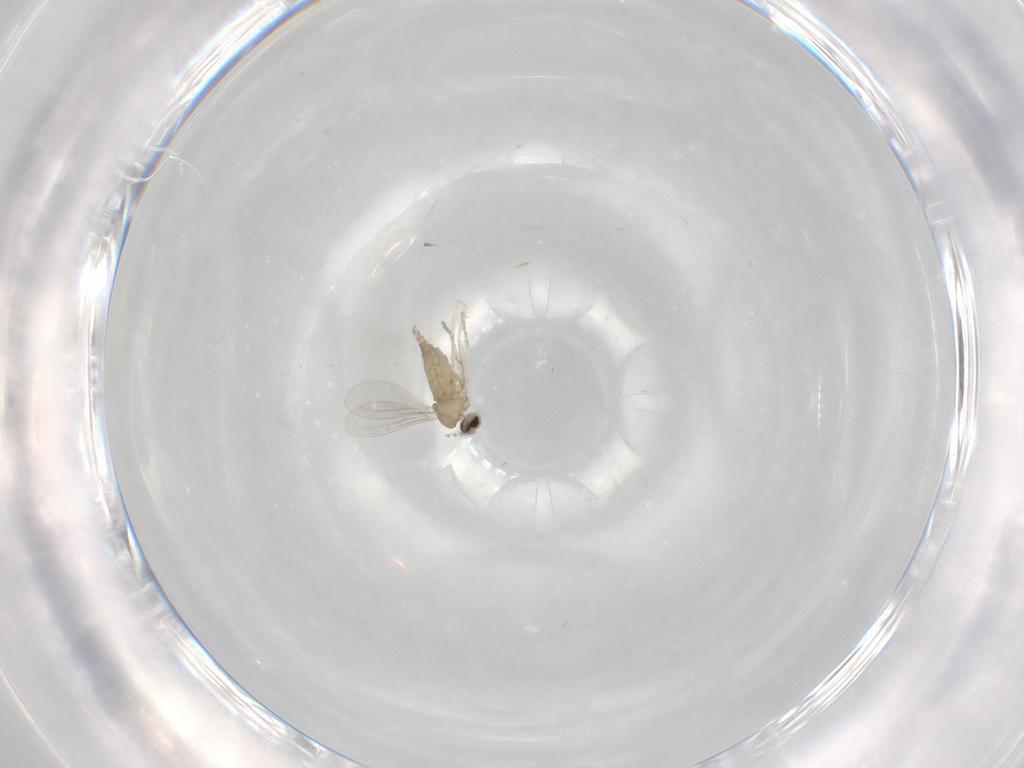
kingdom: Animalia
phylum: Arthropoda
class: Insecta
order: Diptera
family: Cecidomyiidae
